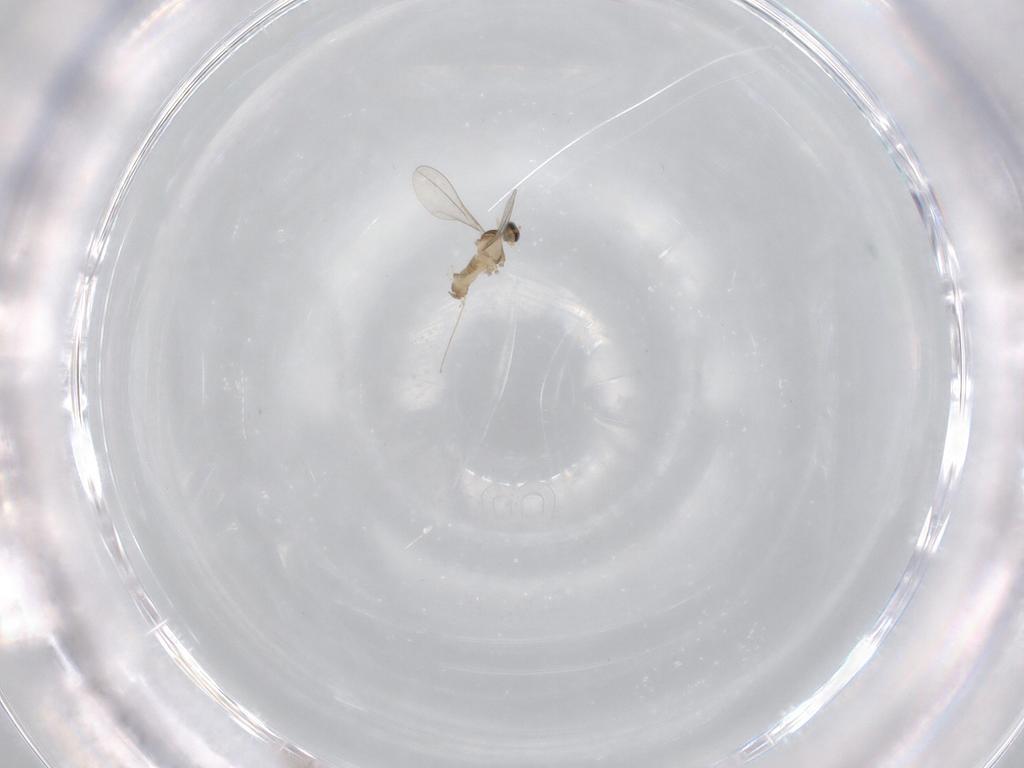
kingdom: Animalia
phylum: Arthropoda
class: Insecta
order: Diptera
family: Cecidomyiidae
